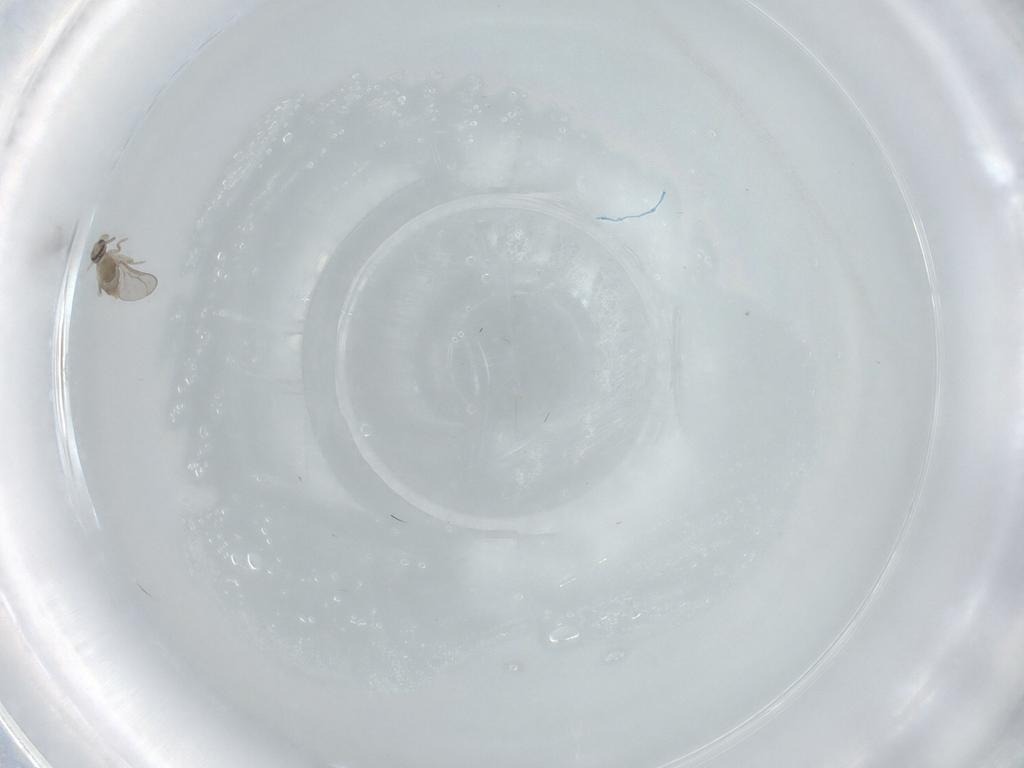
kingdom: Animalia
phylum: Arthropoda
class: Insecta
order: Diptera
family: Cecidomyiidae
